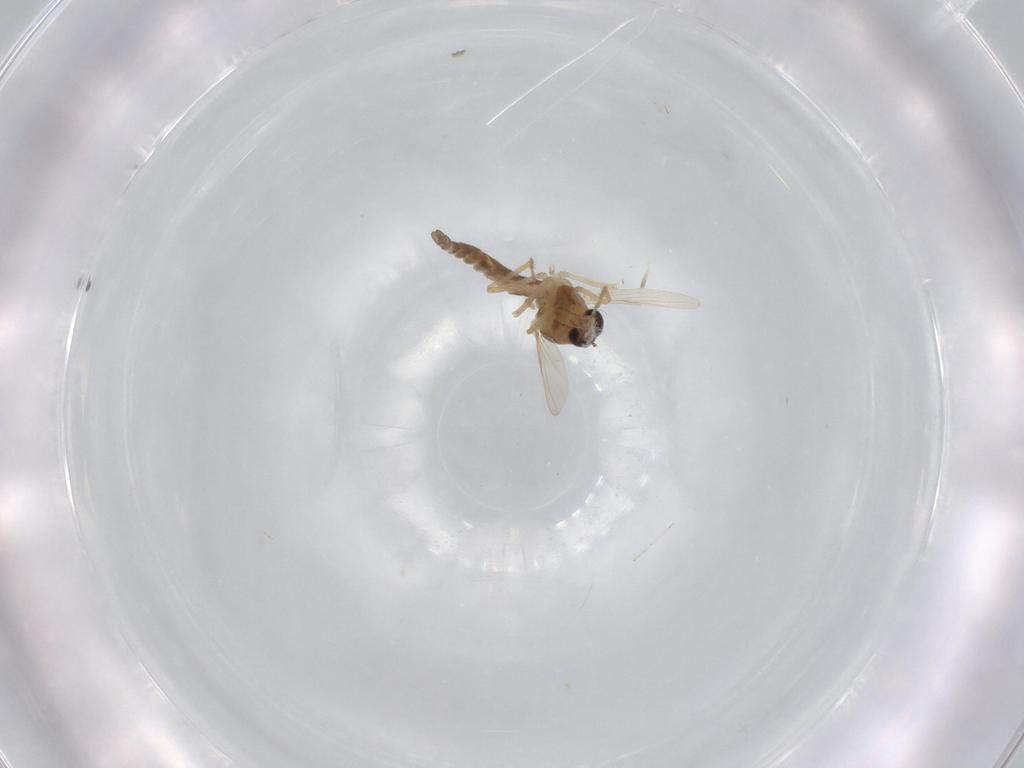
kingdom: Animalia
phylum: Arthropoda
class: Insecta
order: Diptera
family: Ceratopogonidae
